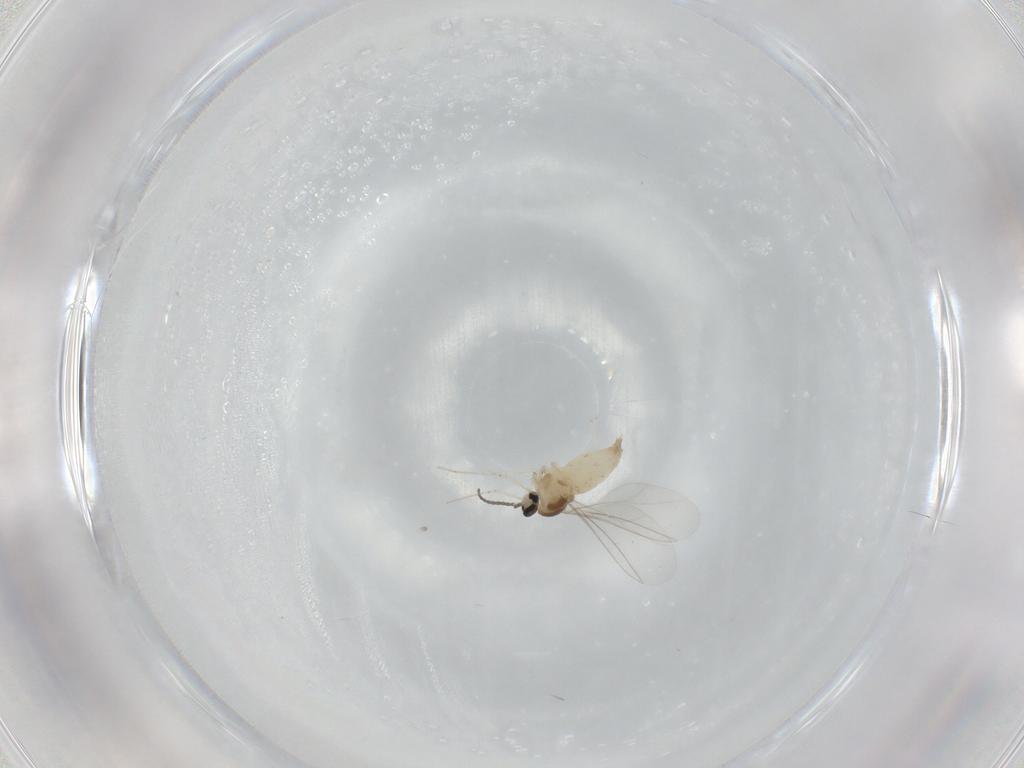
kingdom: Animalia
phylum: Arthropoda
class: Insecta
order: Diptera
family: Cecidomyiidae
